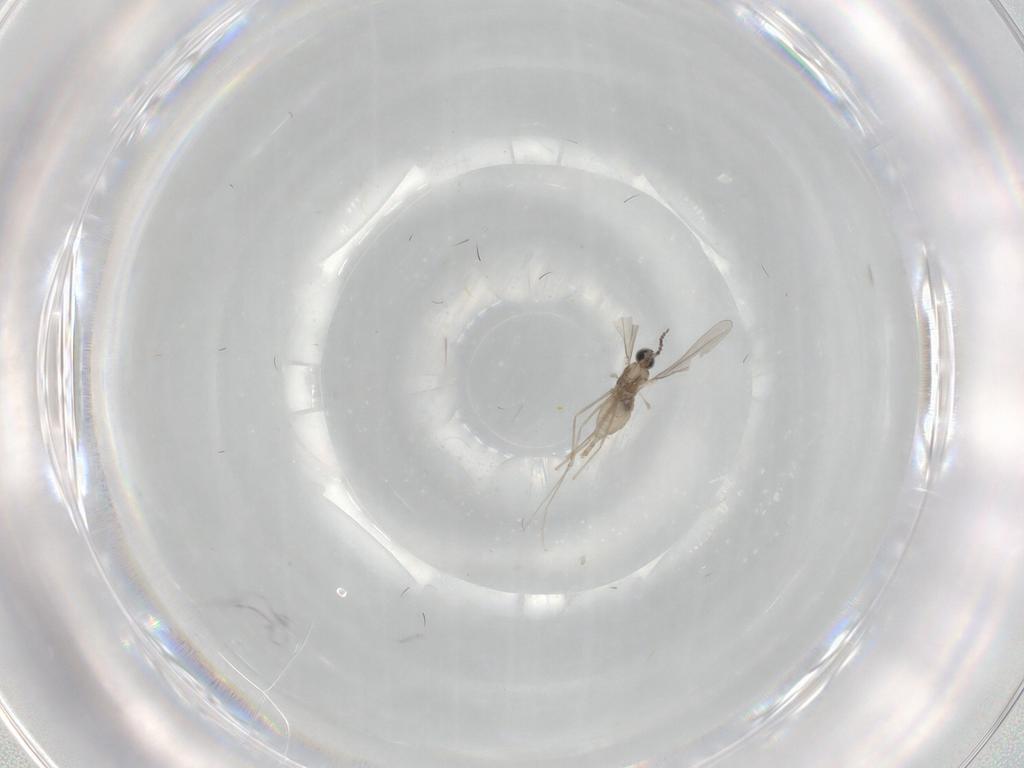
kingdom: Animalia
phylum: Arthropoda
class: Insecta
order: Diptera
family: Cecidomyiidae
